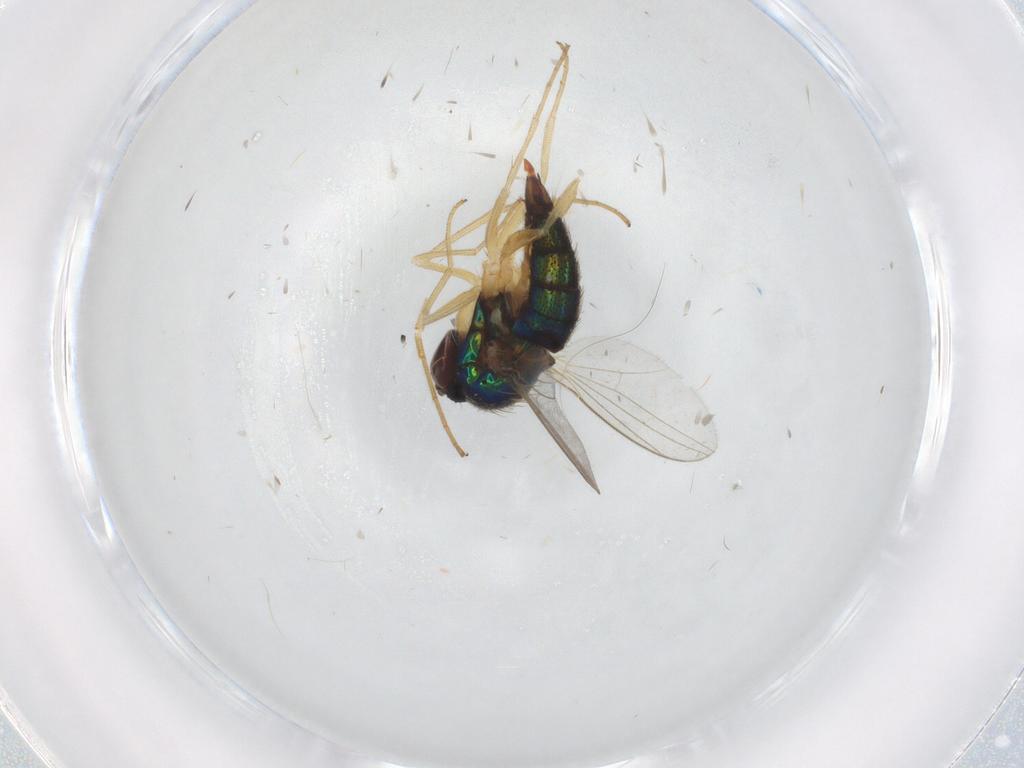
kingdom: Animalia
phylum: Arthropoda
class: Insecta
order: Diptera
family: Dolichopodidae
